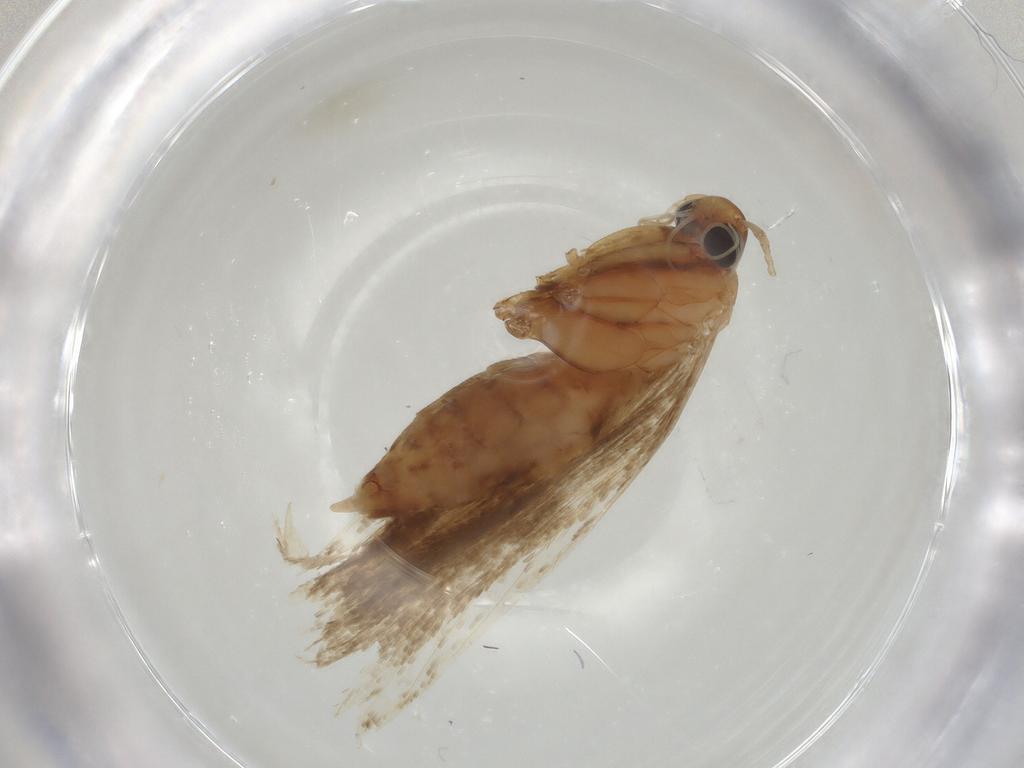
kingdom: Animalia
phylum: Arthropoda
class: Insecta
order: Lepidoptera
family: Lecithoceridae
